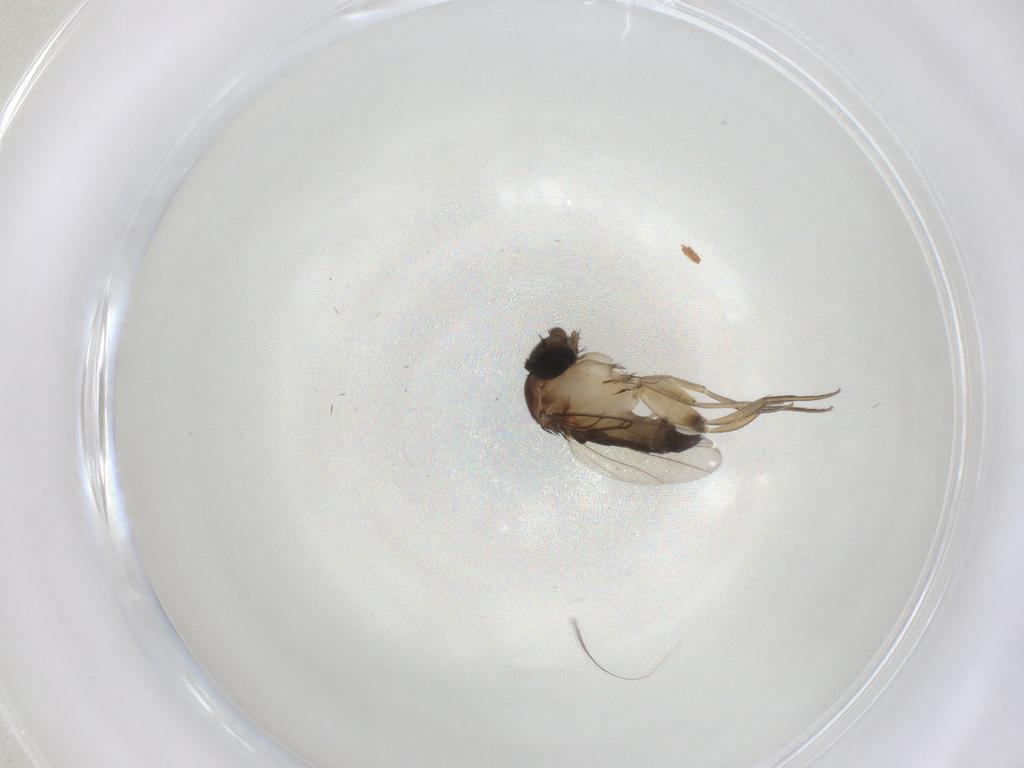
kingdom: Animalia
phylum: Arthropoda
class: Insecta
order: Diptera
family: Phoridae
